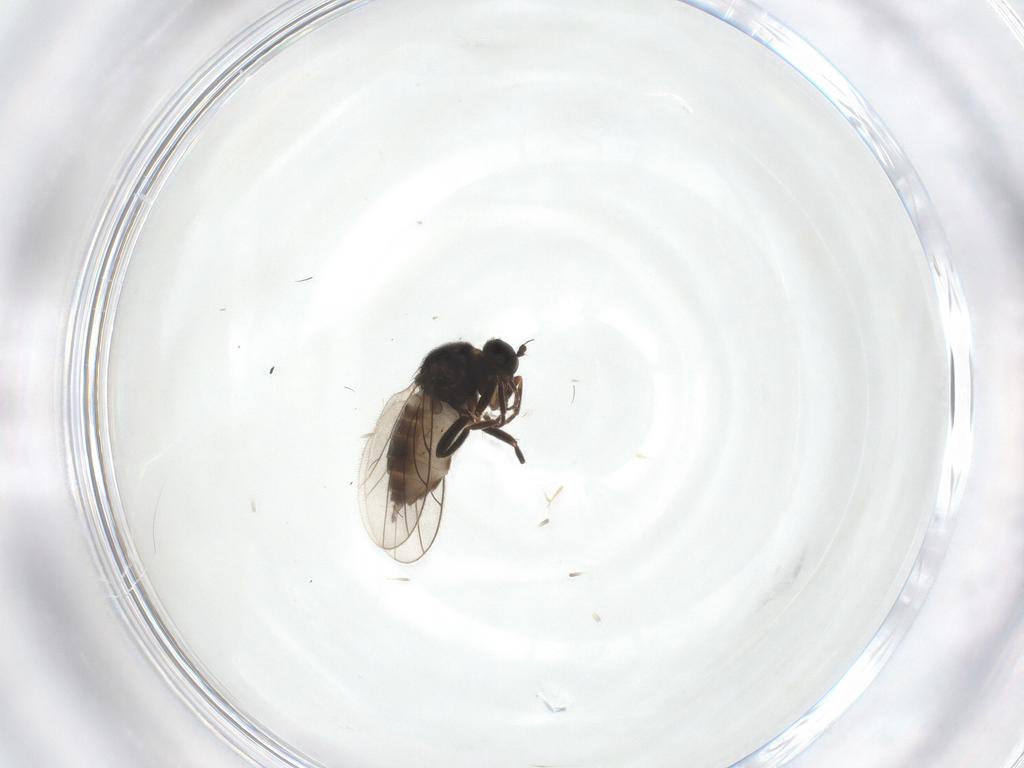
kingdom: Animalia
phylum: Arthropoda
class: Insecta
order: Diptera
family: Hybotidae
